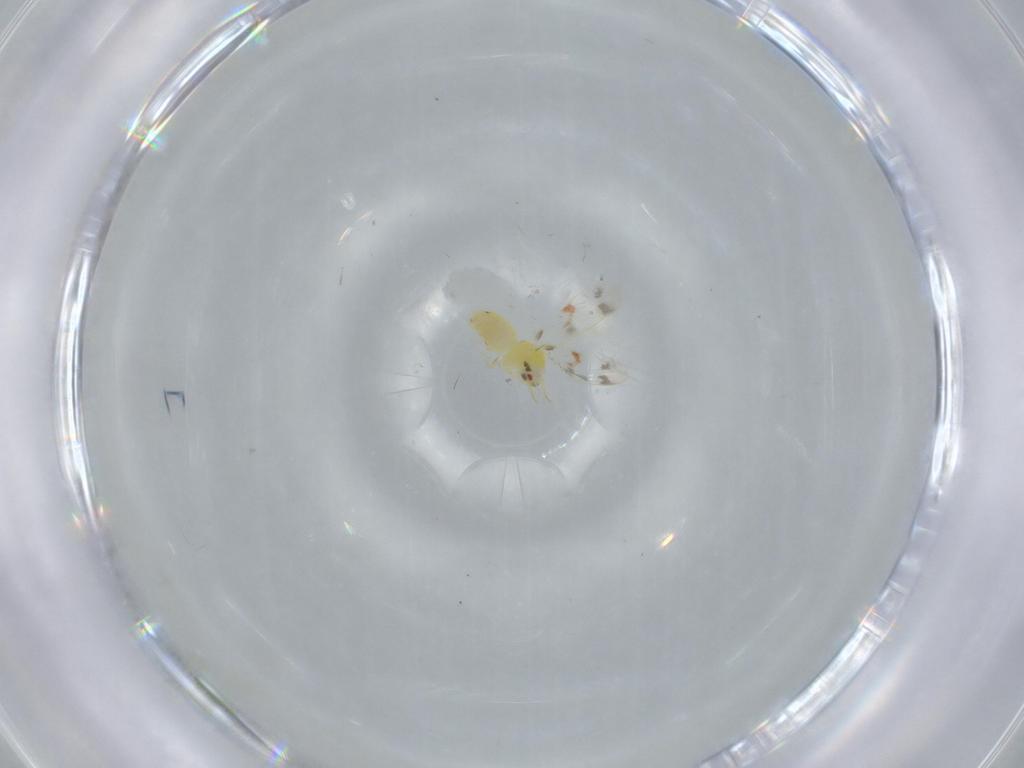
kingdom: Animalia
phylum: Arthropoda
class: Insecta
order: Hemiptera
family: Aleyrodidae
